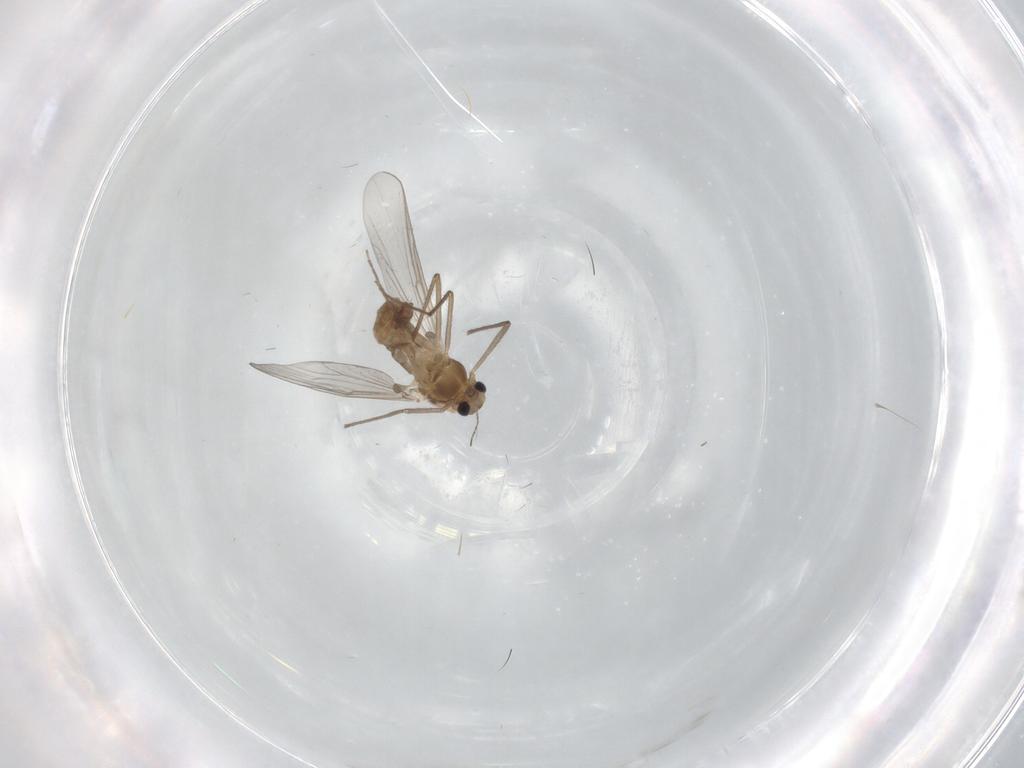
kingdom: Animalia
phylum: Arthropoda
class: Insecta
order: Diptera
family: Chironomidae
